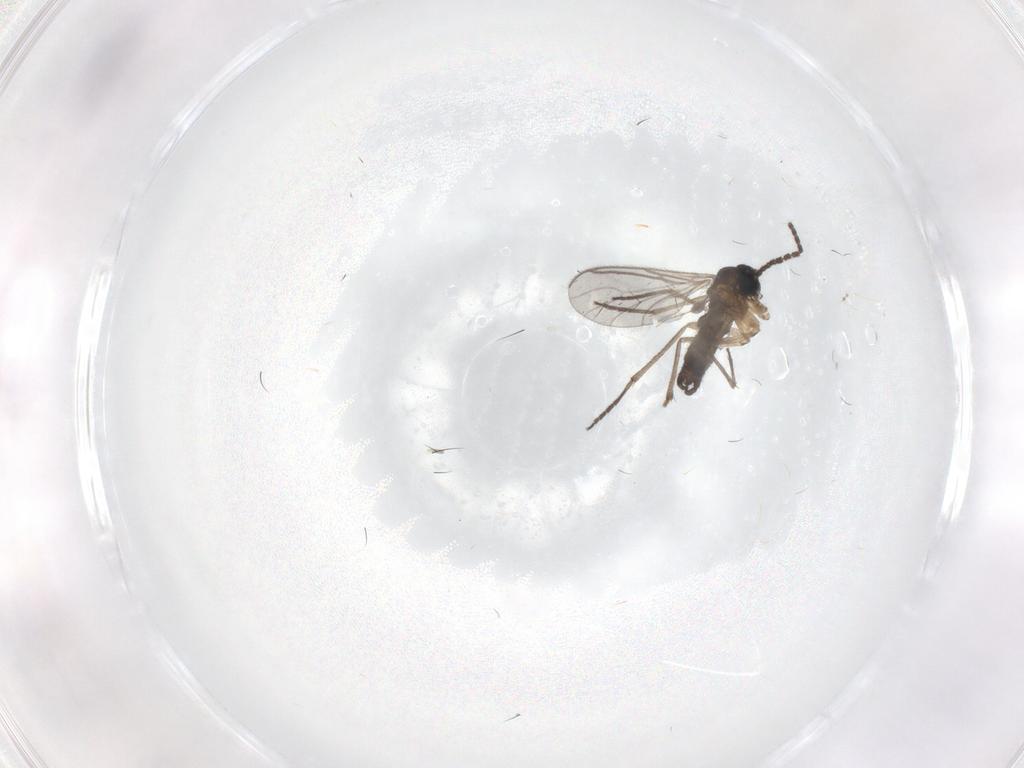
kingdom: Animalia
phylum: Arthropoda
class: Insecta
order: Diptera
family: Sciaridae
